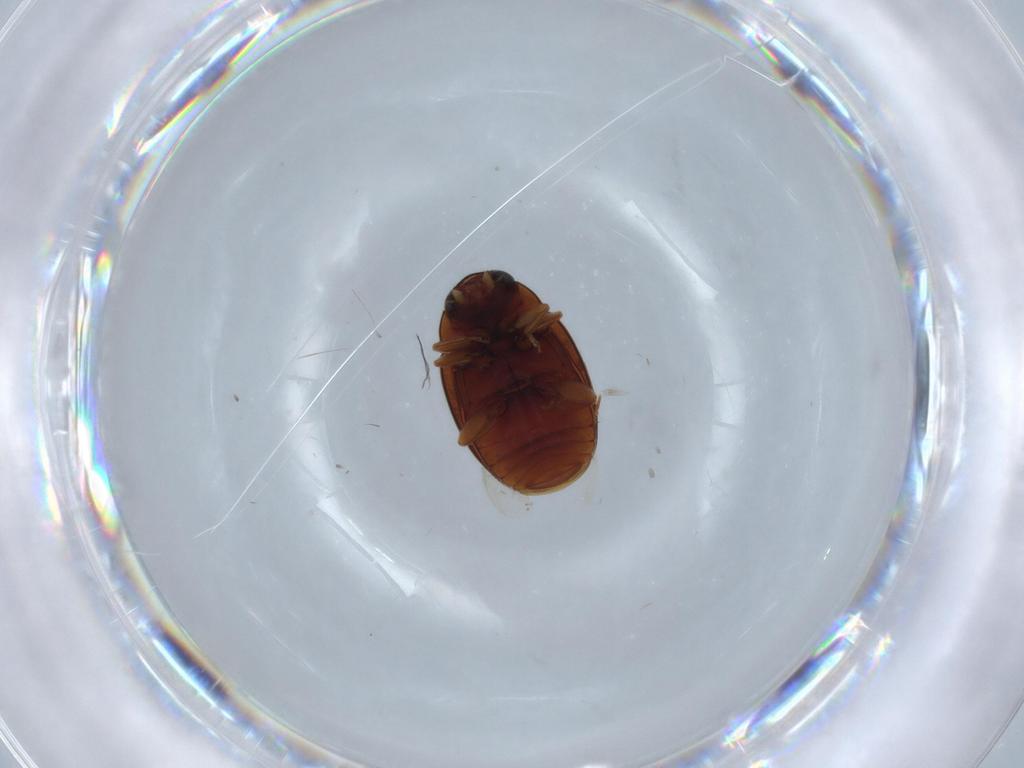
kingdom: Animalia
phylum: Arthropoda
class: Insecta
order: Coleoptera
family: Coccinellidae
